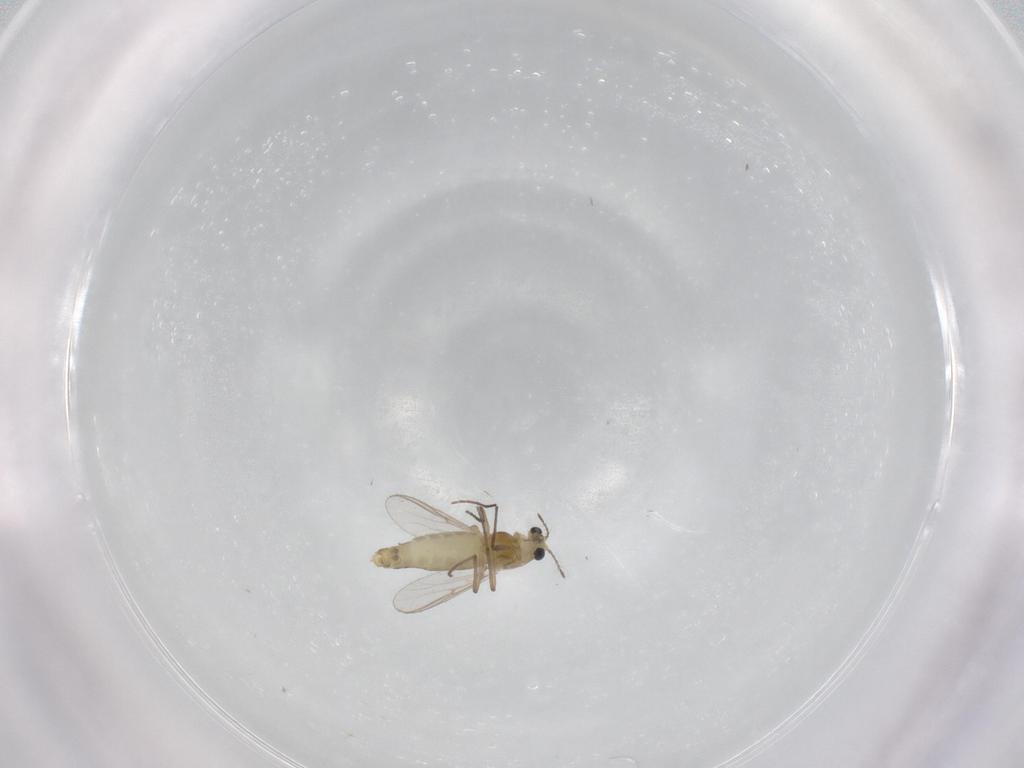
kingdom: Animalia
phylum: Arthropoda
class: Insecta
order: Diptera
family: Chironomidae
